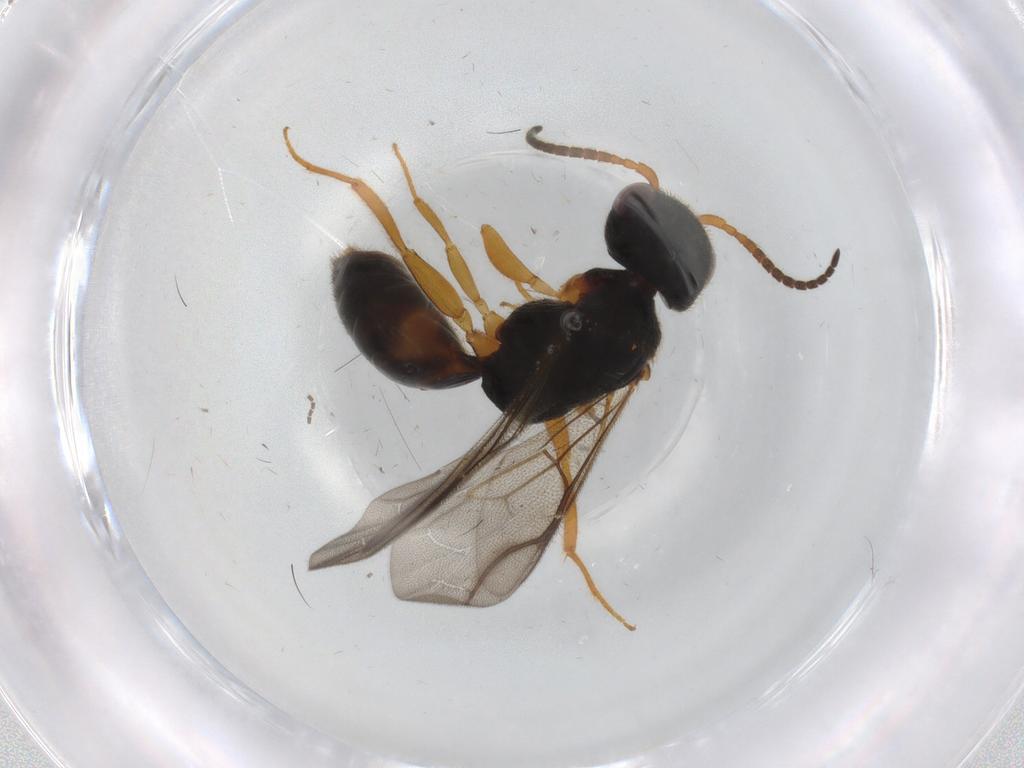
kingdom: Animalia
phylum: Arthropoda
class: Insecta
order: Hymenoptera
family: Bethylidae
